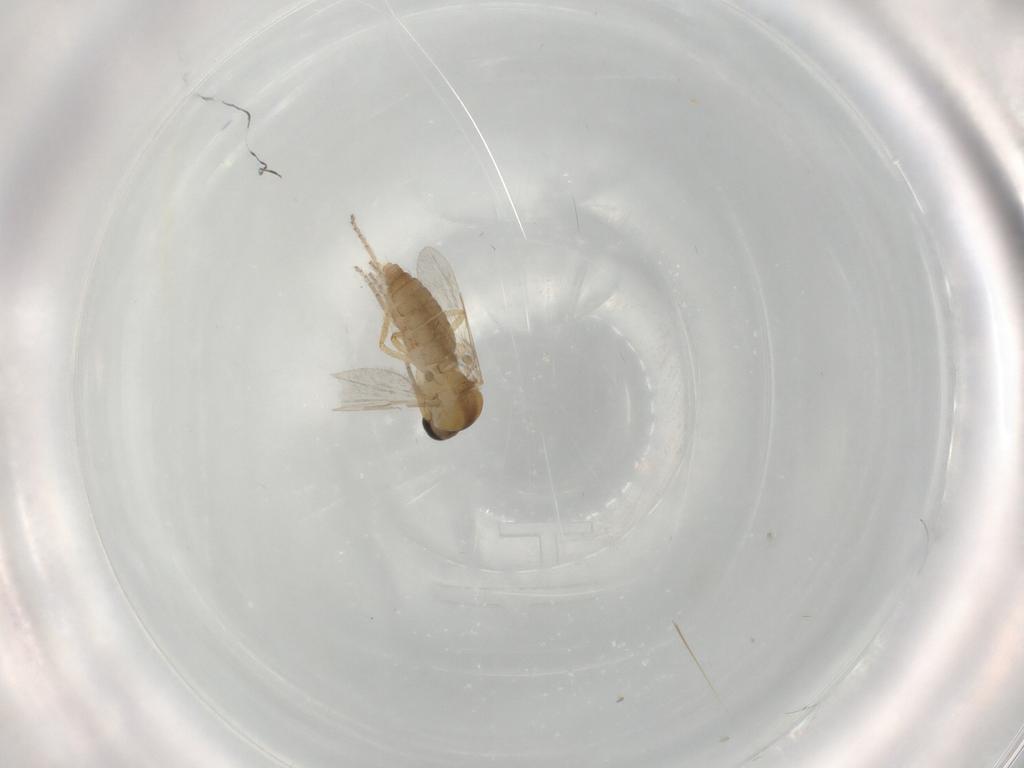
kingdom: Animalia
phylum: Arthropoda
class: Insecta
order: Diptera
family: Ceratopogonidae
